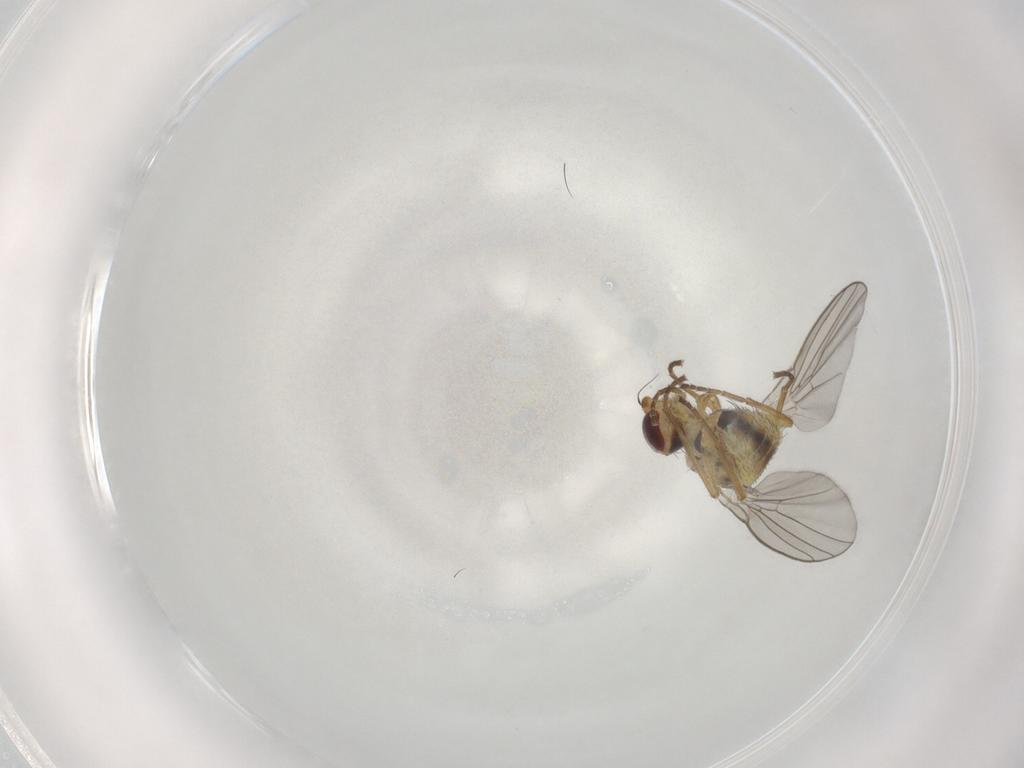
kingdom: Animalia
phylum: Arthropoda
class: Insecta
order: Diptera
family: Agromyzidae
